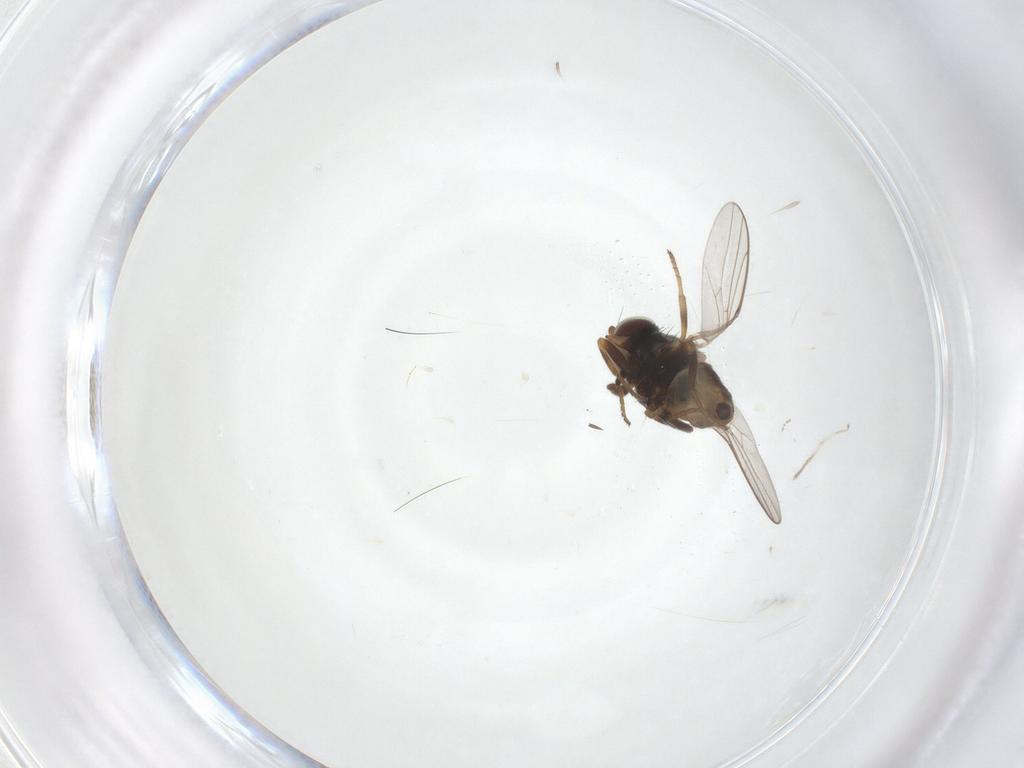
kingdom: Animalia
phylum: Arthropoda
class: Insecta
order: Diptera
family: Chloropidae
